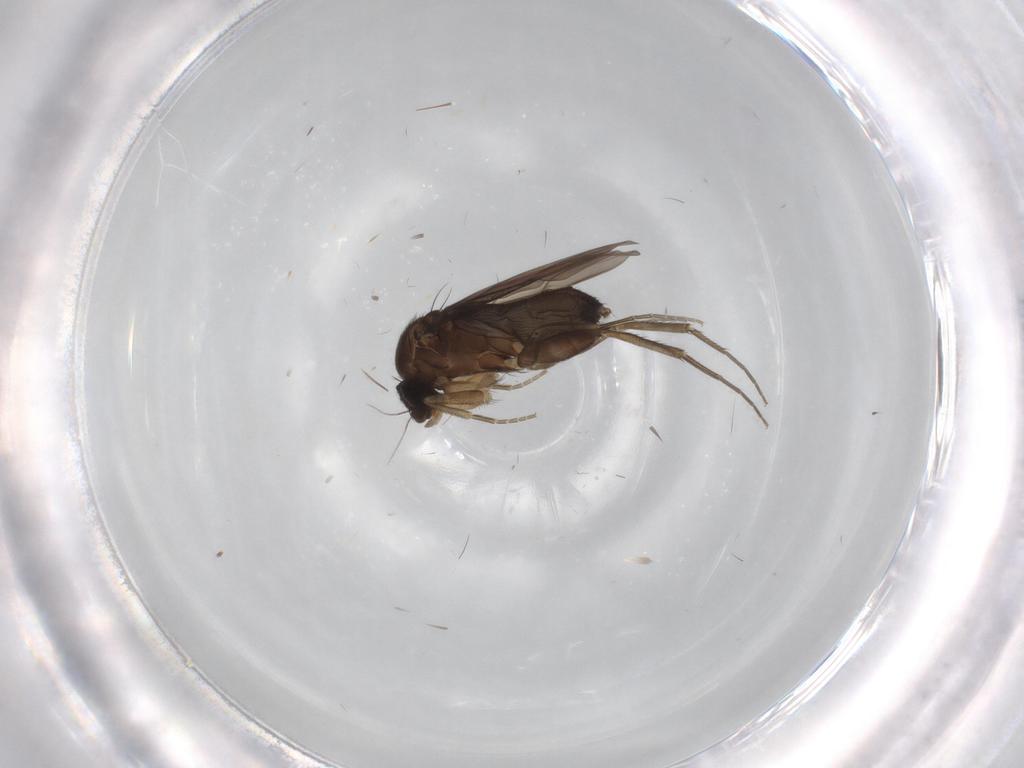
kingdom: Animalia
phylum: Arthropoda
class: Insecta
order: Diptera
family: Phoridae
